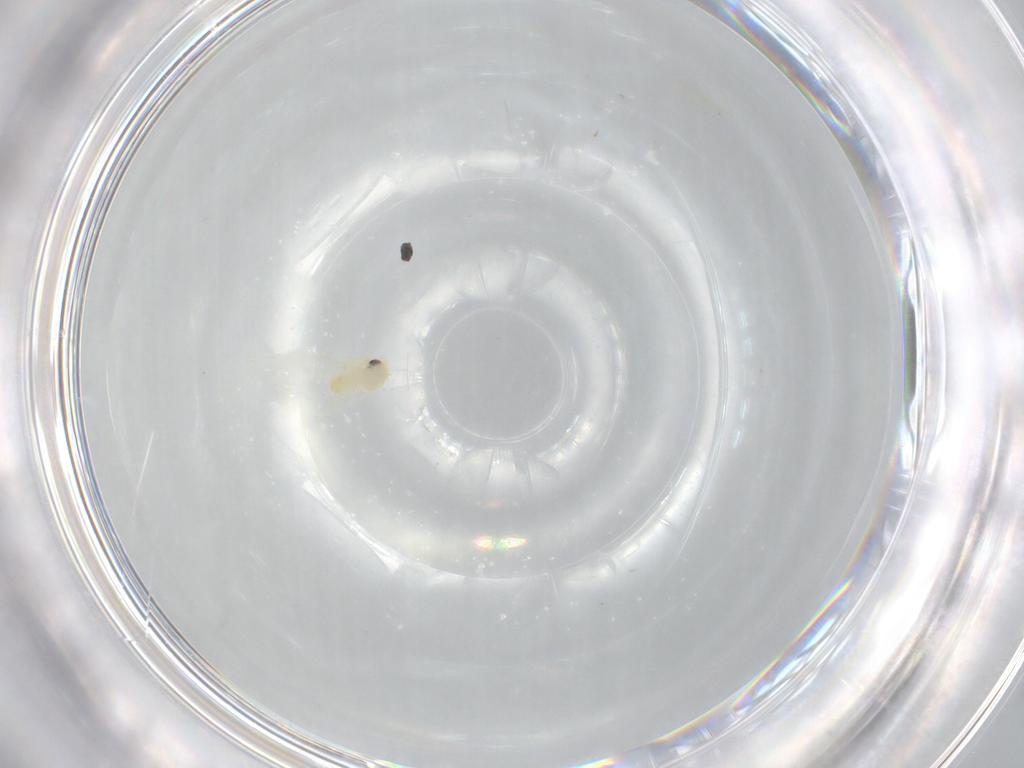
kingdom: Animalia
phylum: Arthropoda
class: Insecta
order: Hemiptera
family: Aleyrodidae
